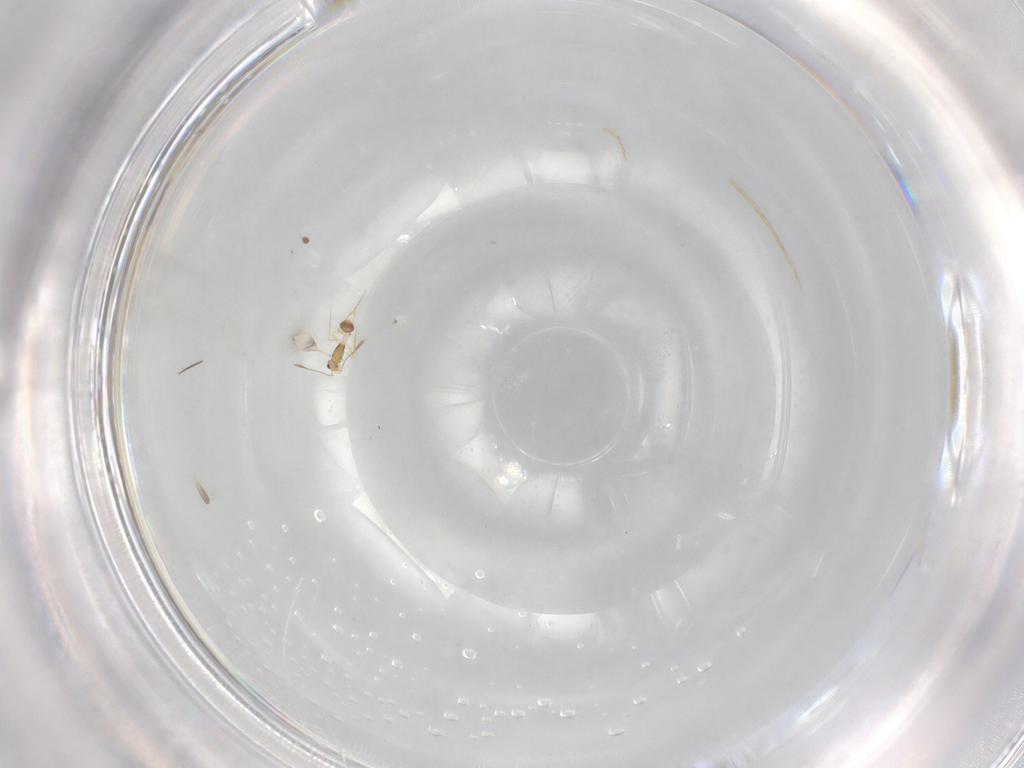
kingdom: Animalia
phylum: Arthropoda
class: Insecta
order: Hymenoptera
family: Mymarommatidae
